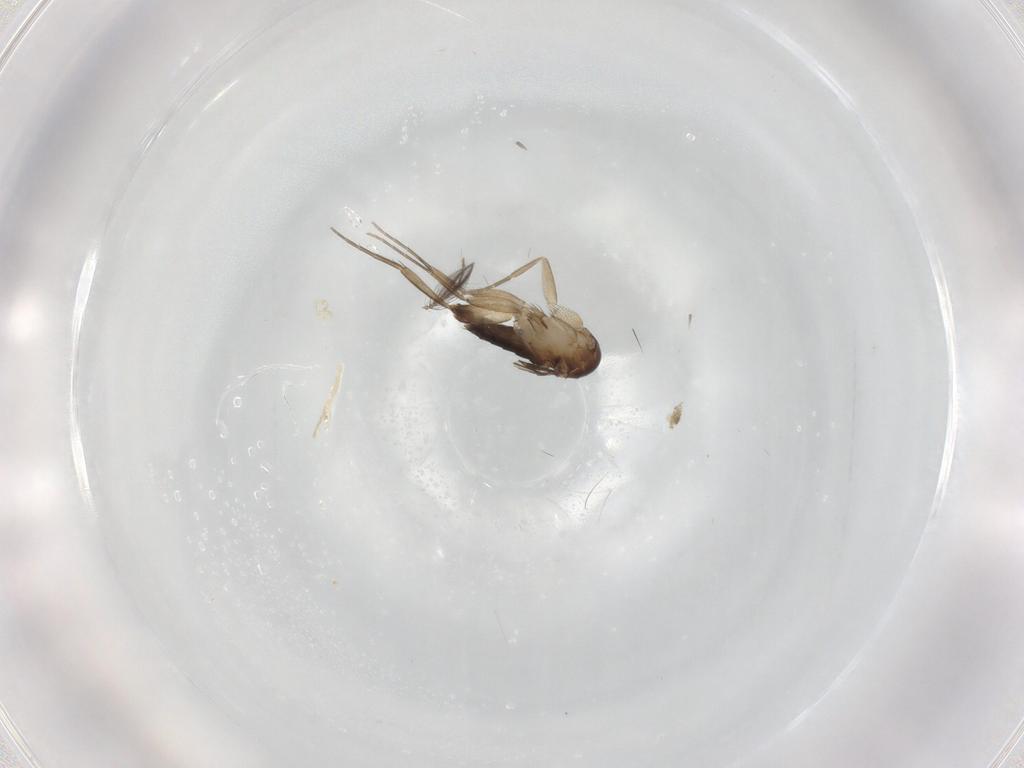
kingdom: Animalia
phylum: Arthropoda
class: Insecta
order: Diptera
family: Phoridae
